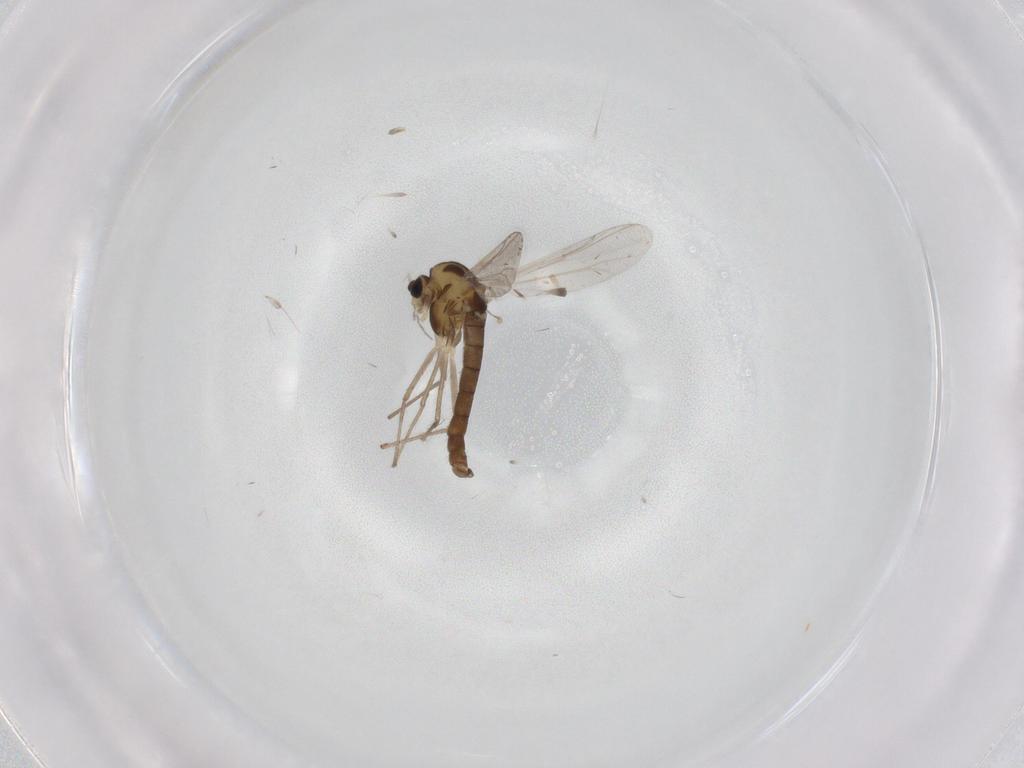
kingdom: Animalia
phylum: Arthropoda
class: Insecta
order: Diptera
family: Chironomidae
